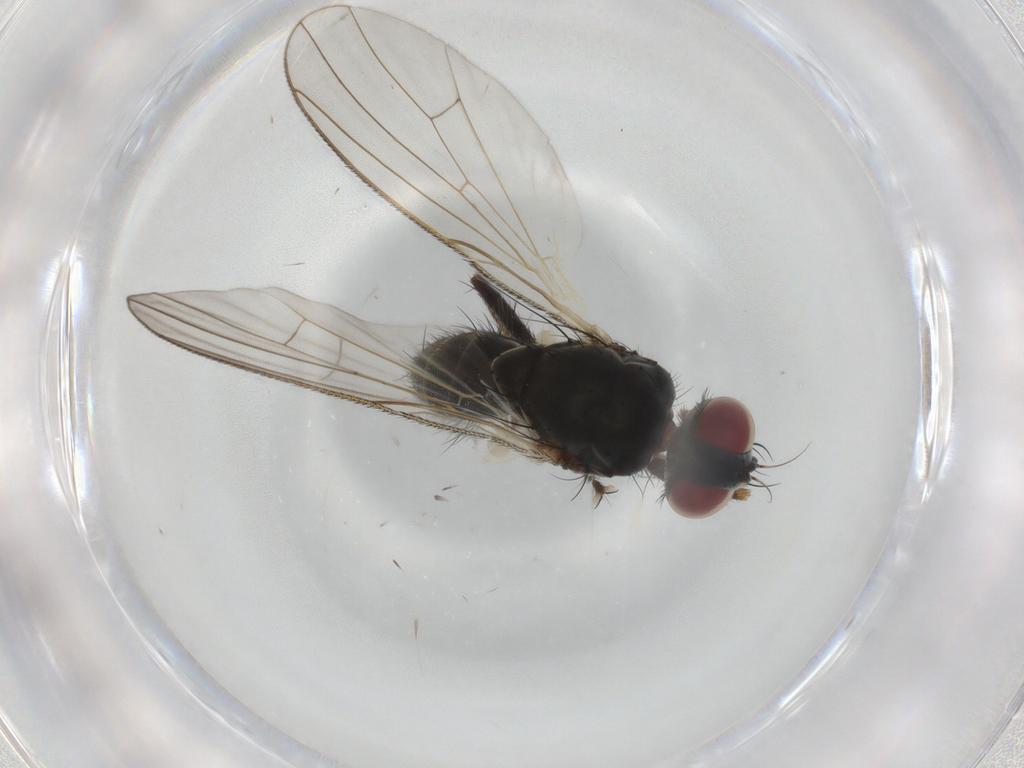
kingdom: Animalia
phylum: Arthropoda
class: Insecta
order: Diptera
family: Muscidae
